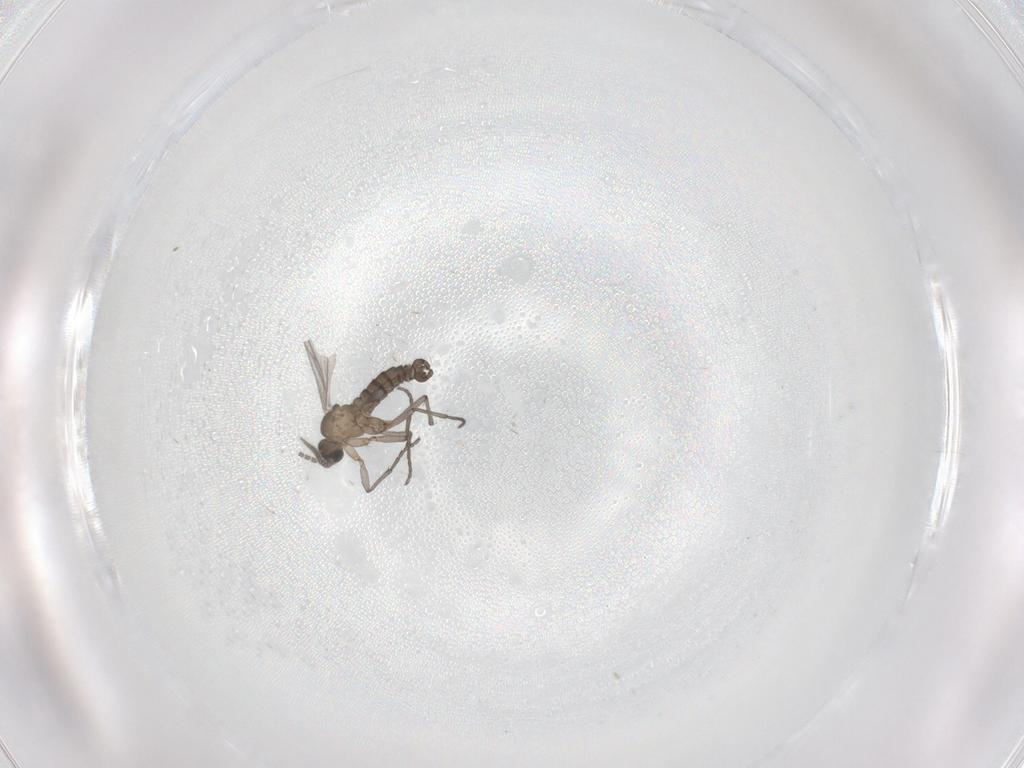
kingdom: Animalia
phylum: Arthropoda
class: Insecta
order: Diptera
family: Sciaridae
